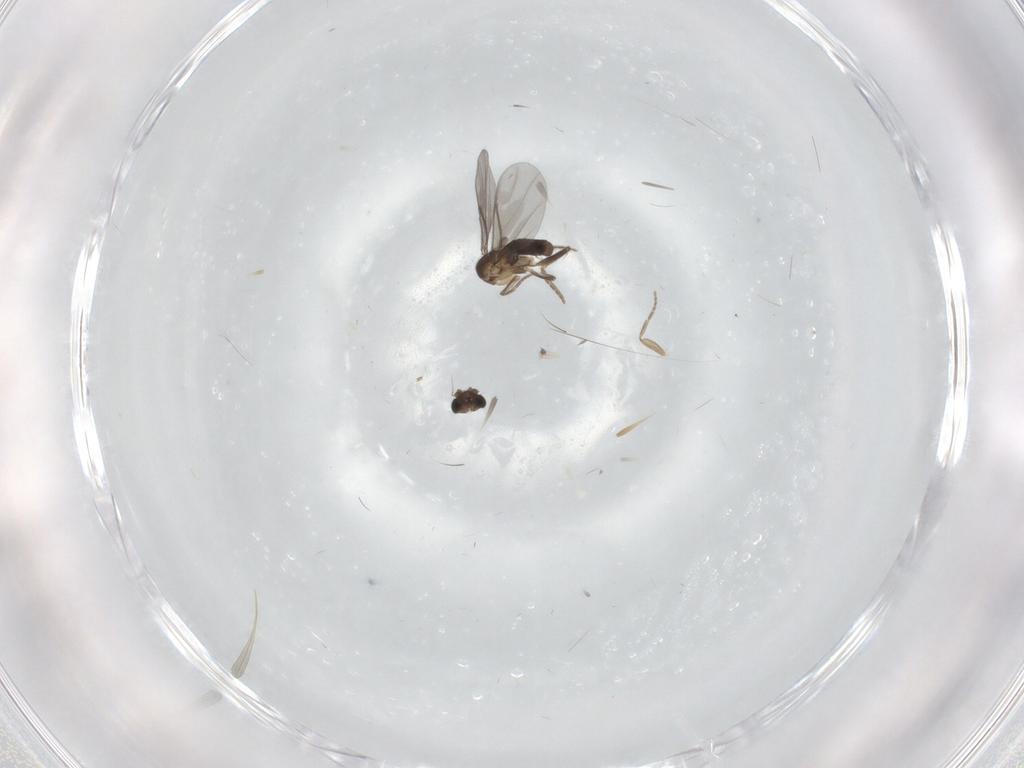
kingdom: Animalia
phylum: Arthropoda
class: Insecta
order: Diptera
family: Phoridae
